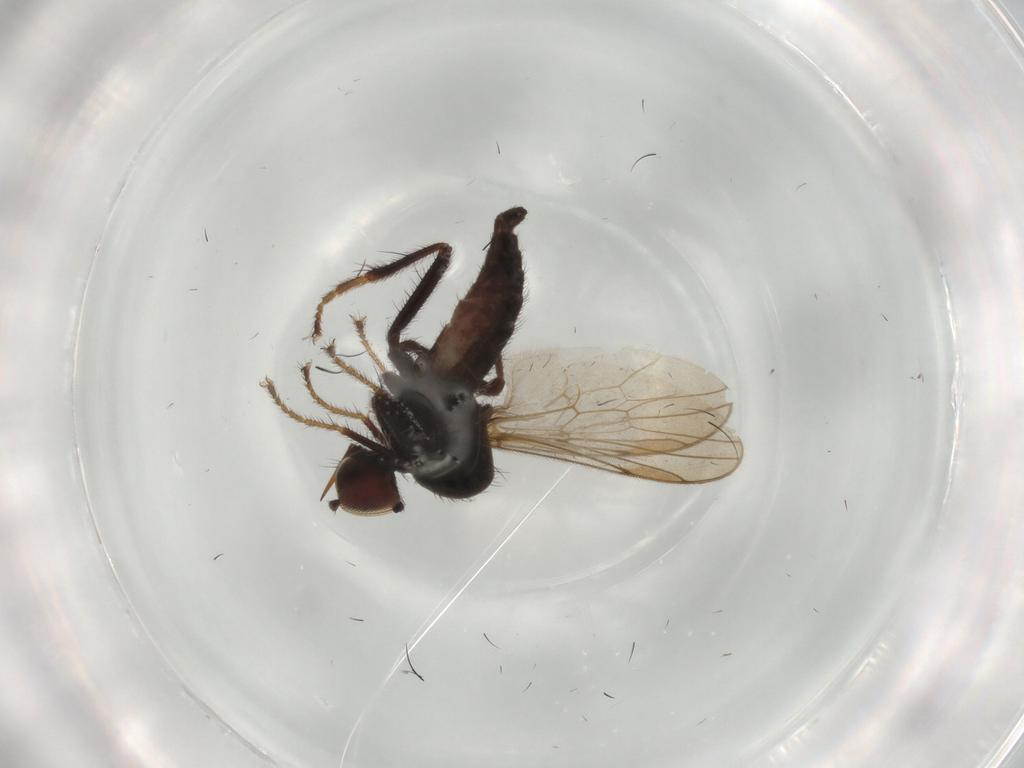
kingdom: Animalia
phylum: Arthropoda
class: Insecta
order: Diptera
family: Hybotidae
